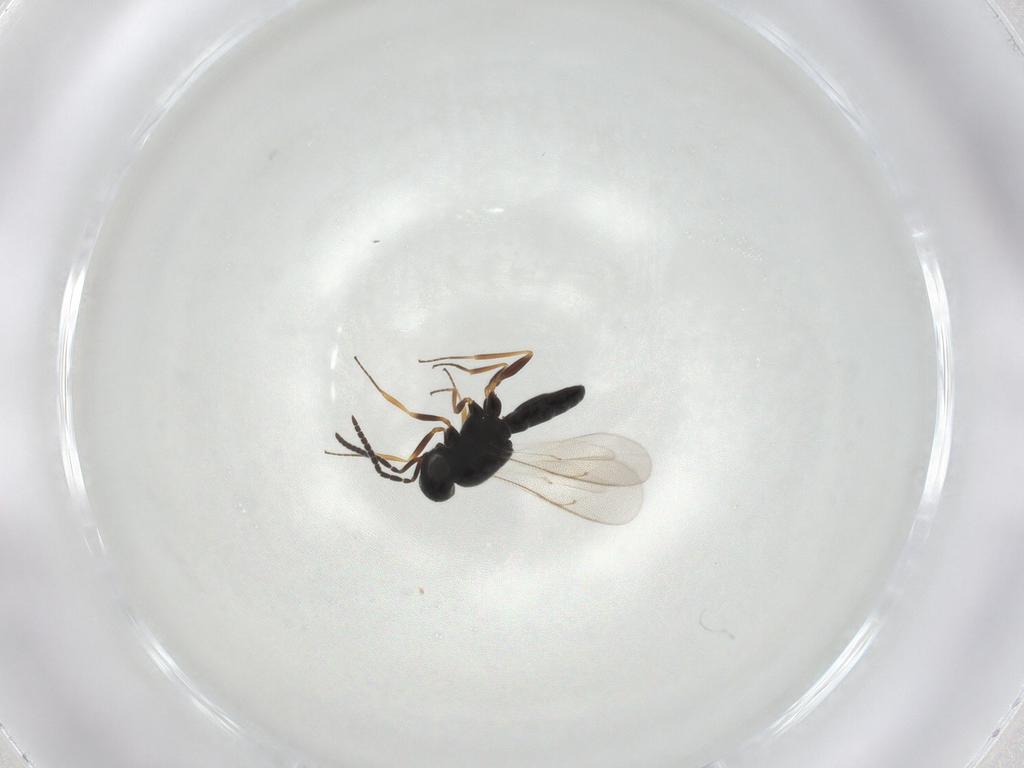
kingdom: Animalia
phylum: Arthropoda
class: Insecta
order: Hymenoptera
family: Scelionidae
